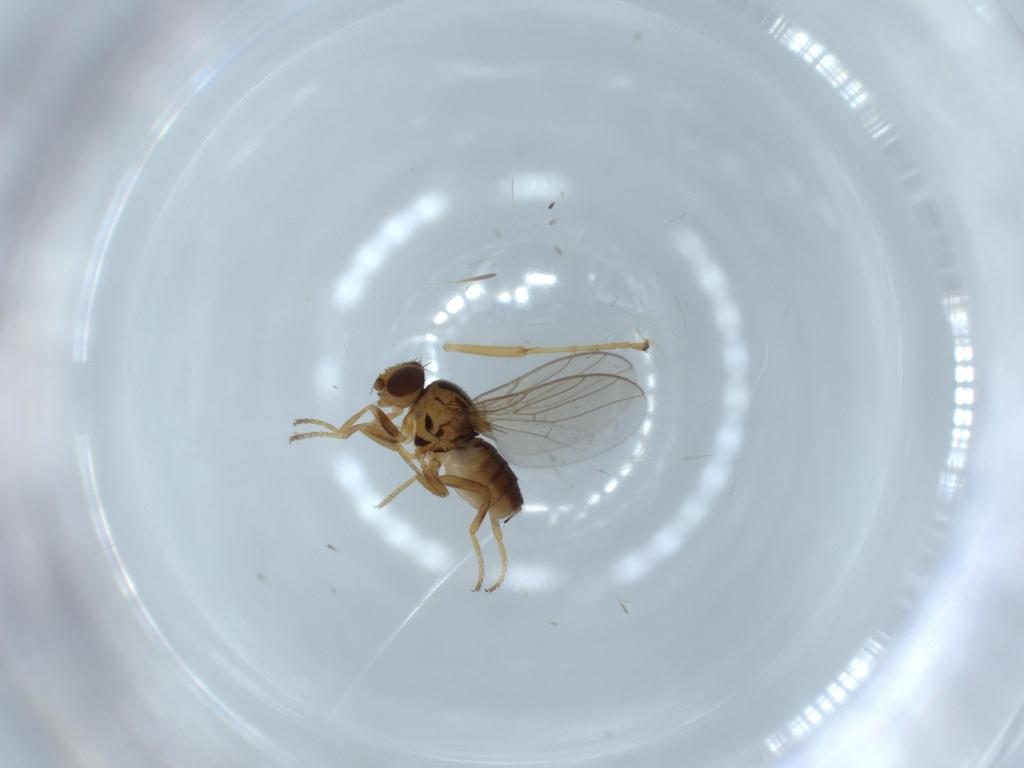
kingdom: Animalia
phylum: Arthropoda
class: Insecta
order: Diptera
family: Chloropidae
